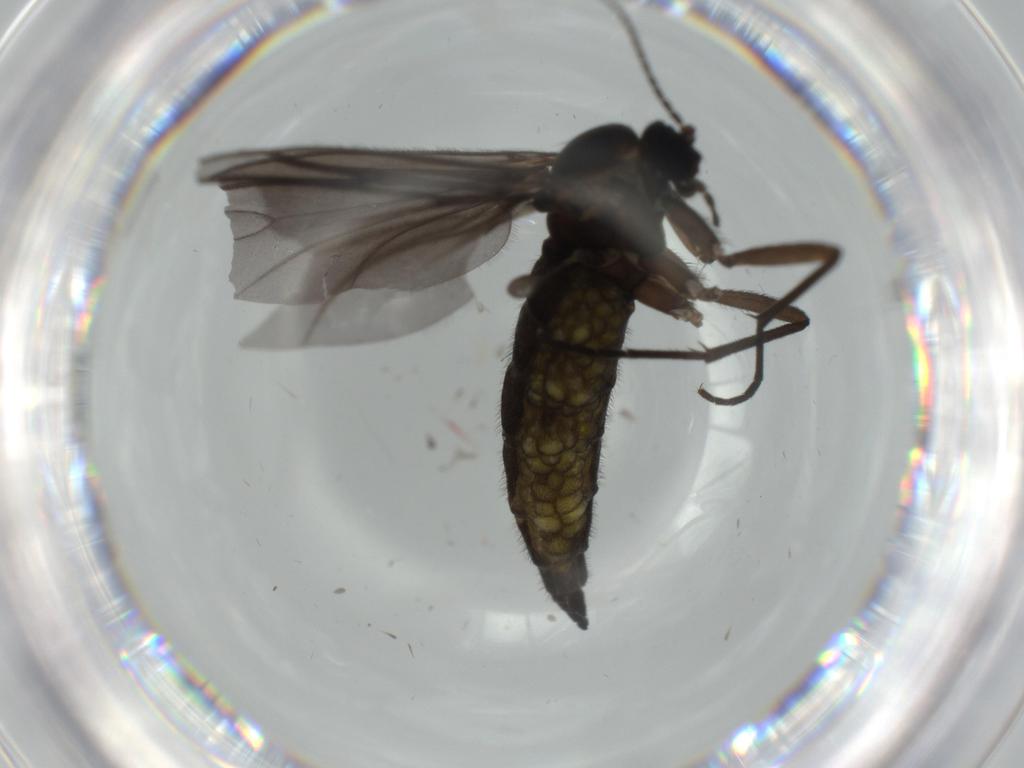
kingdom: Animalia
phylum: Arthropoda
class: Insecta
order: Diptera
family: Sciaridae
